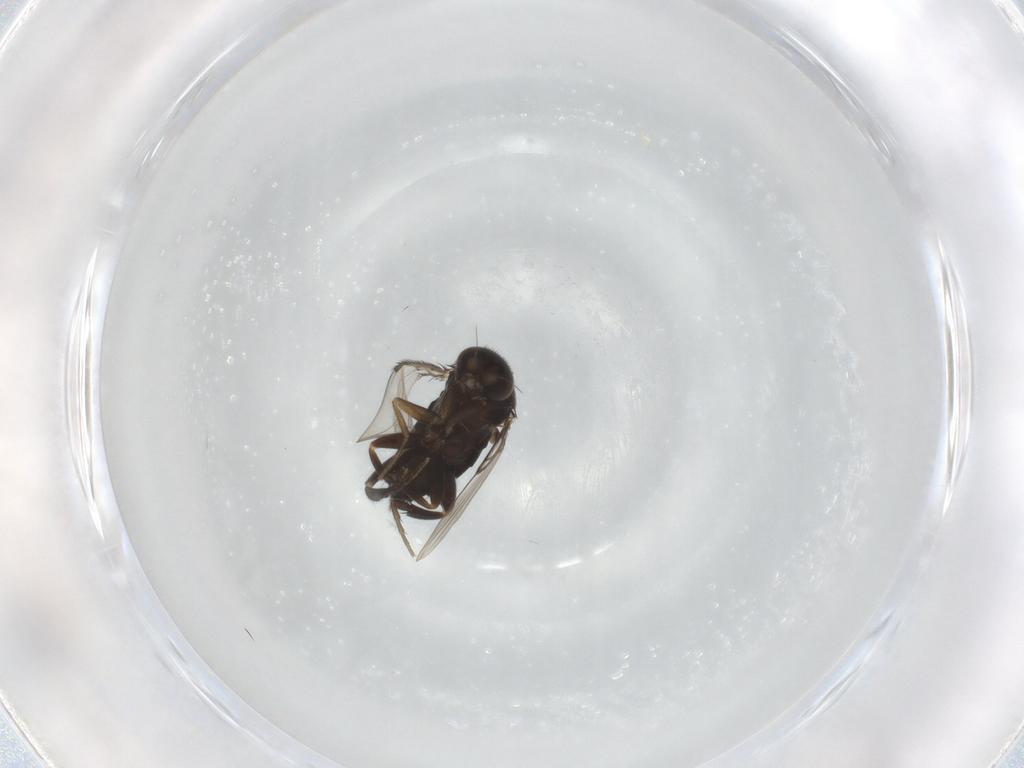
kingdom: Animalia
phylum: Arthropoda
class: Insecta
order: Diptera
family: Phoridae
